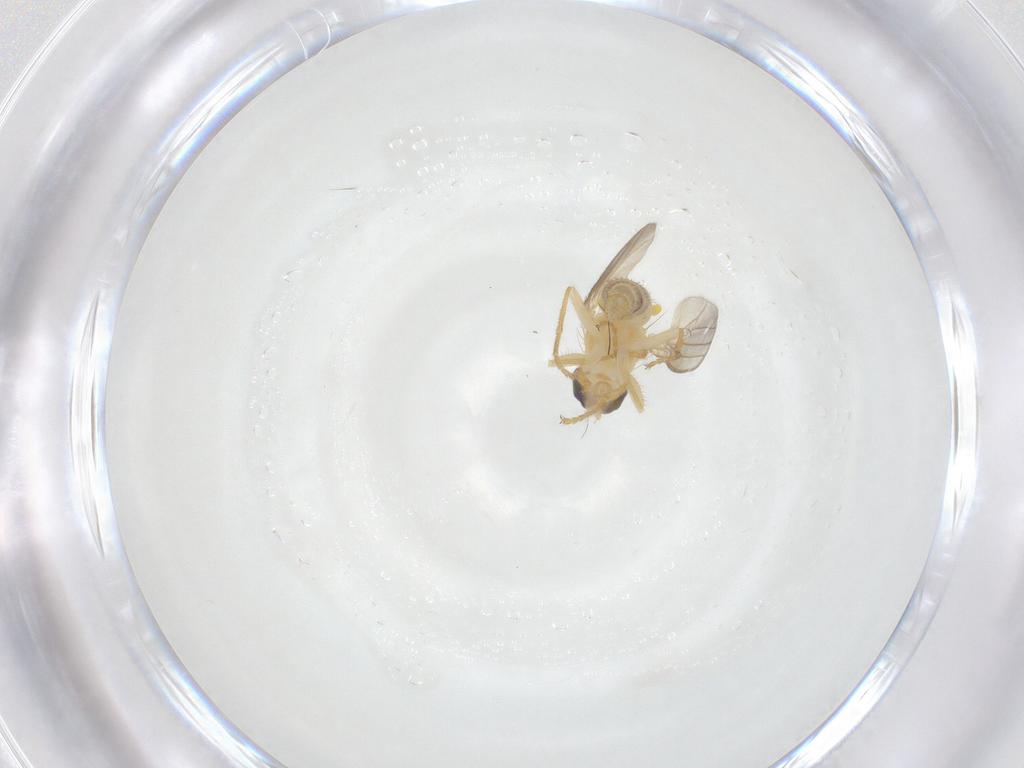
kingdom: Animalia
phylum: Arthropoda
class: Insecta
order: Diptera
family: Chyromyidae
